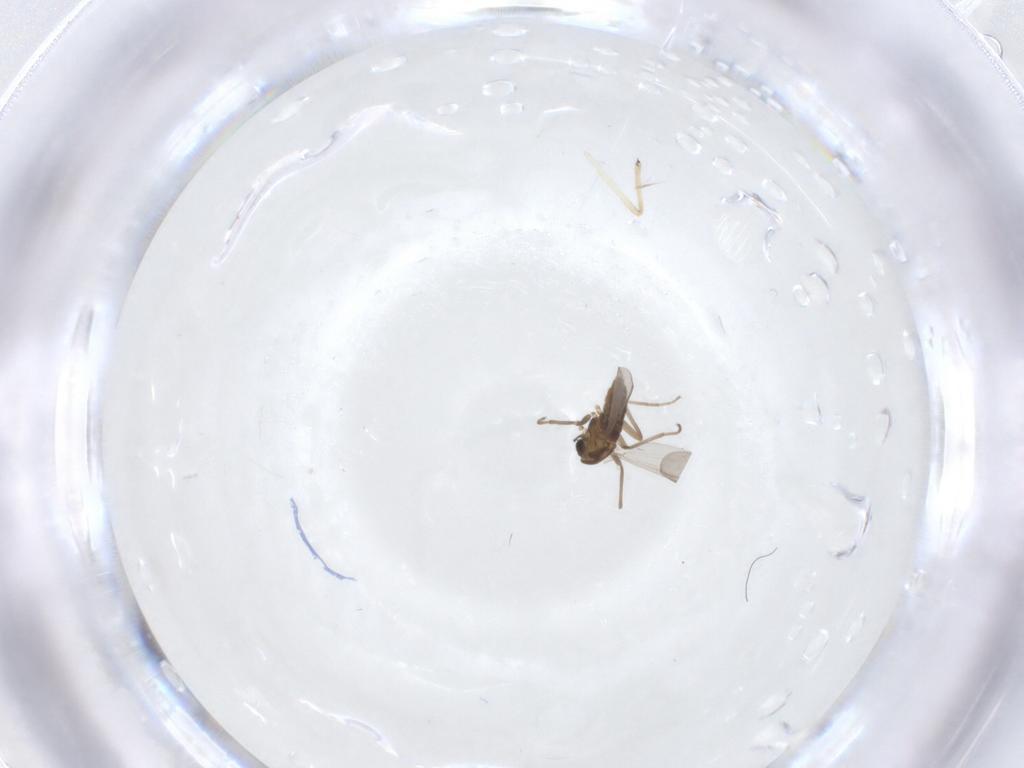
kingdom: Animalia
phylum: Arthropoda
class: Insecta
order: Diptera
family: Chironomidae
